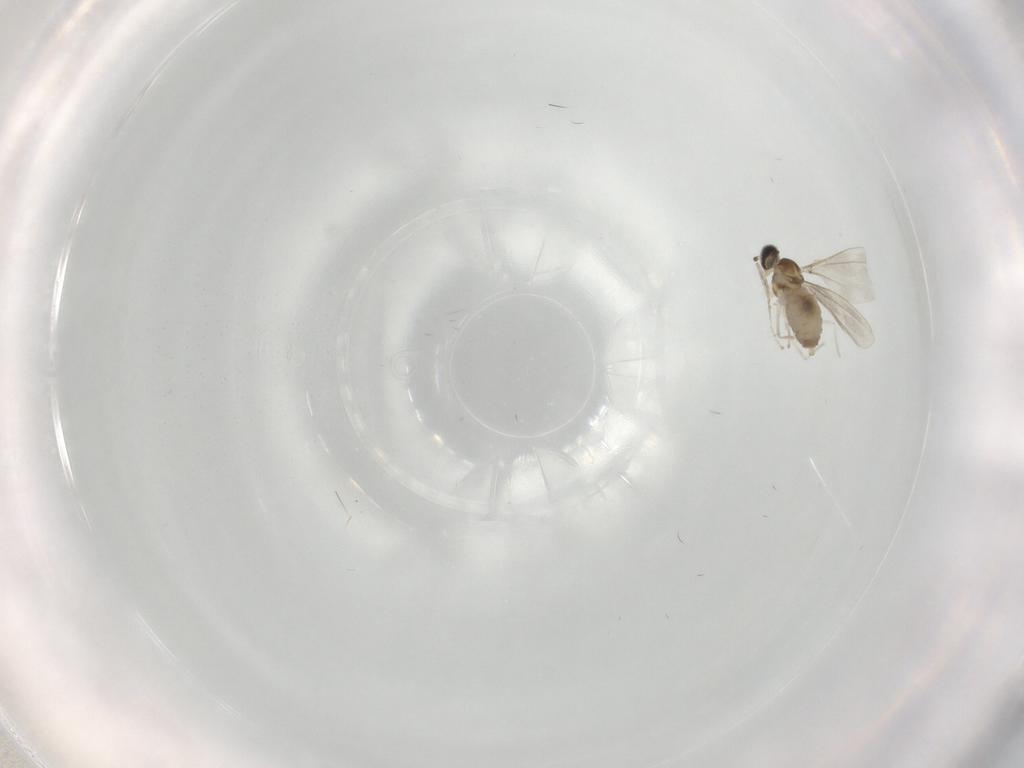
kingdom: Animalia
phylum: Arthropoda
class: Insecta
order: Diptera
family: Cecidomyiidae
